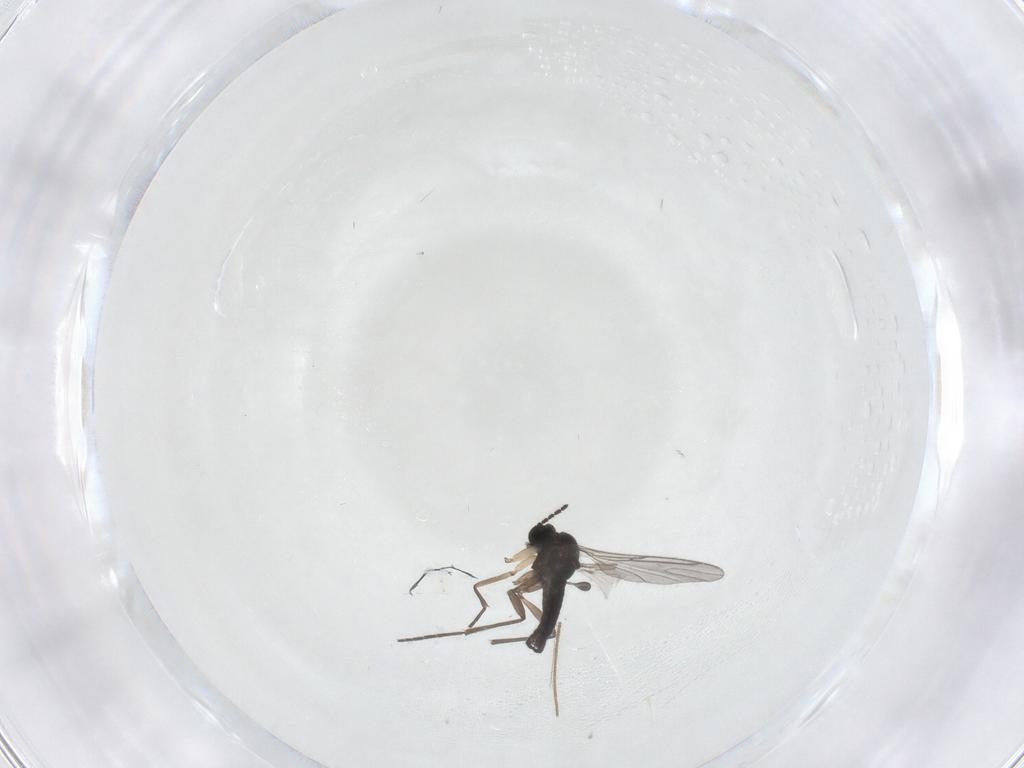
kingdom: Animalia
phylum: Arthropoda
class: Insecta
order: Diptera
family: Sciaridae
